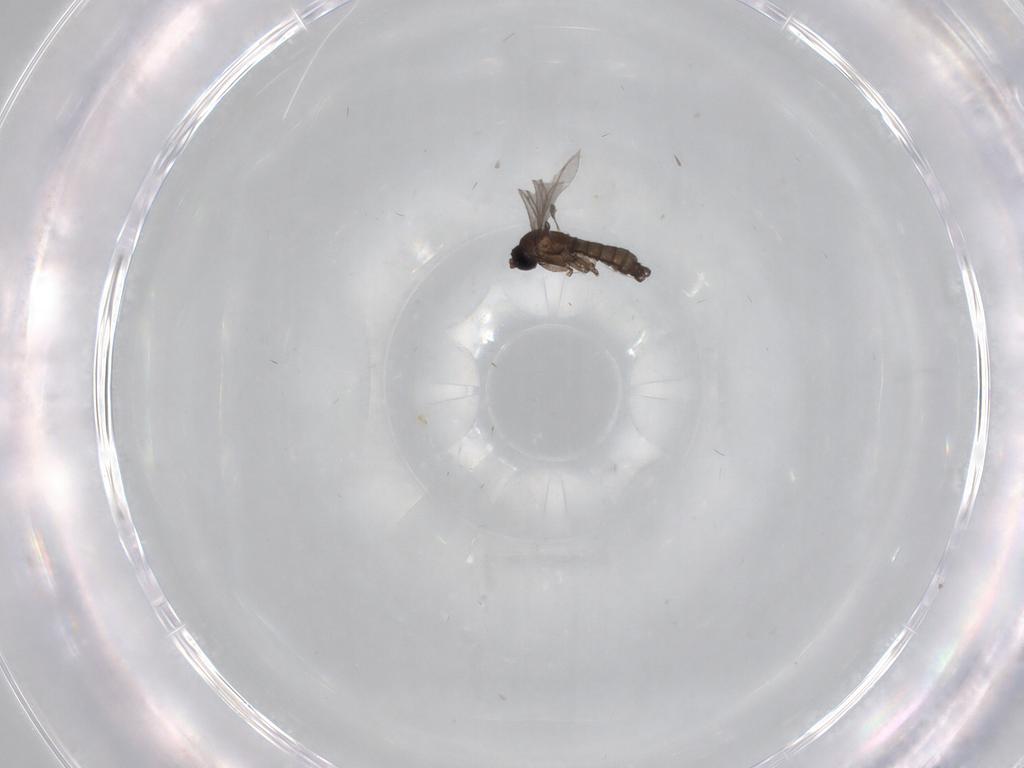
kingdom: Animalia
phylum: Arthropoda
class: Insecta
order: Diptera
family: Sciaridae
